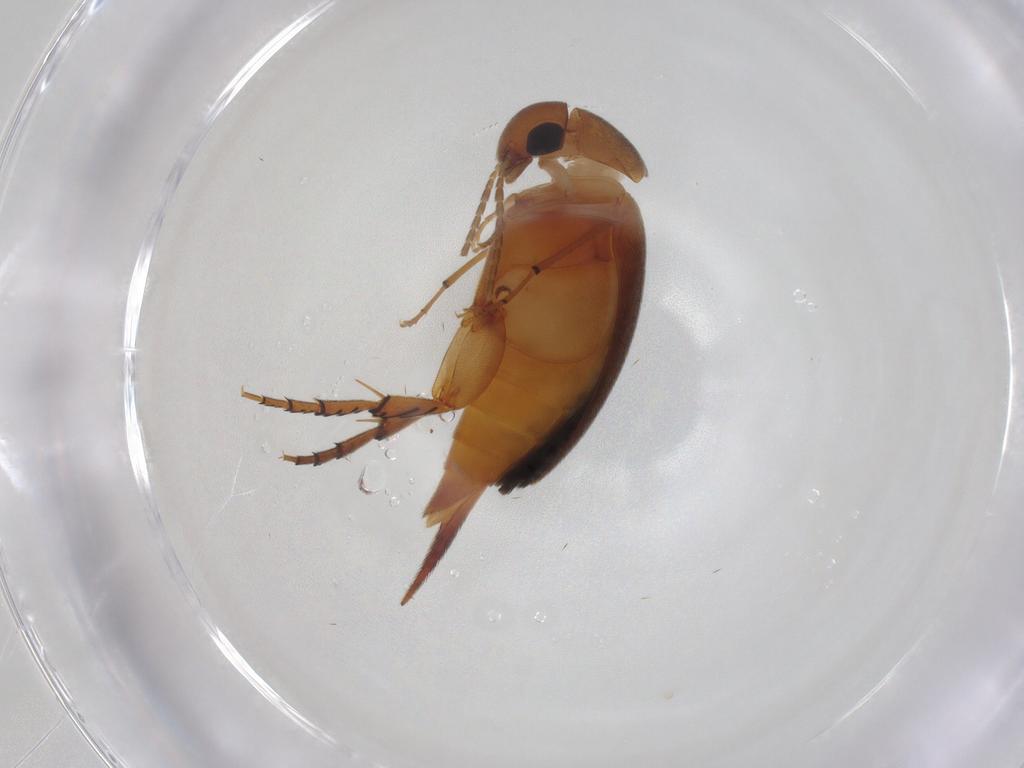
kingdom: Animalia
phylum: Arthropoda
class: Insecta
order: Coleoptera
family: Mordellidae
